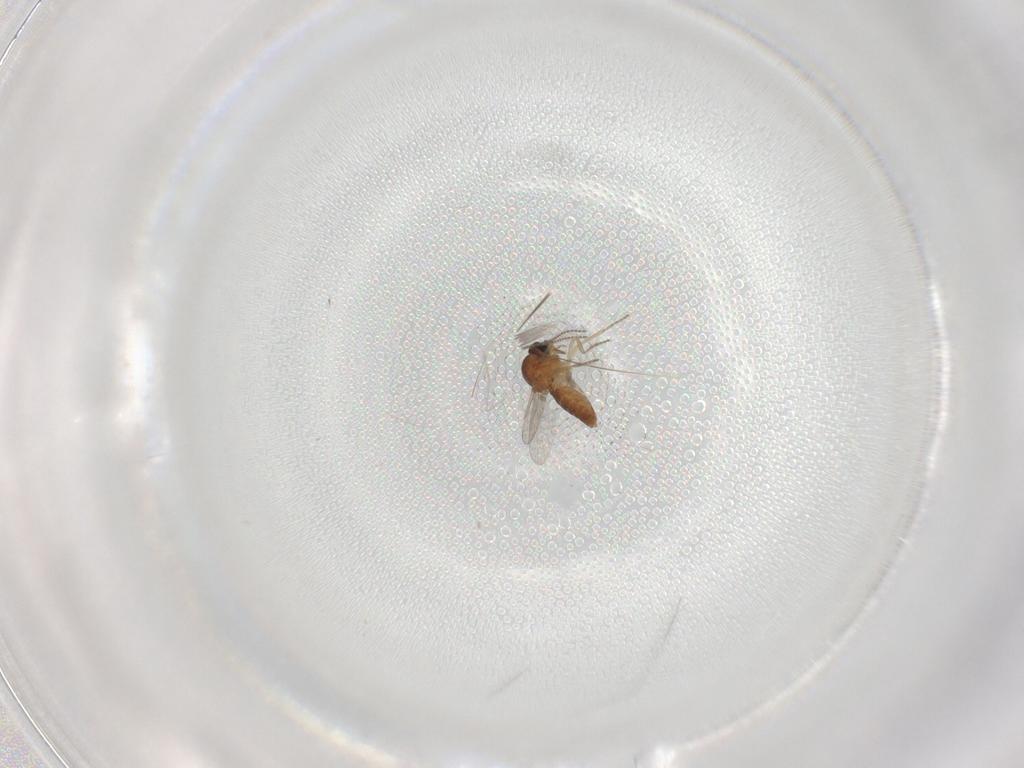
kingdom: Animalia
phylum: Arthropoda
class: Insecta
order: Diptera
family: Ceratopogonidae
